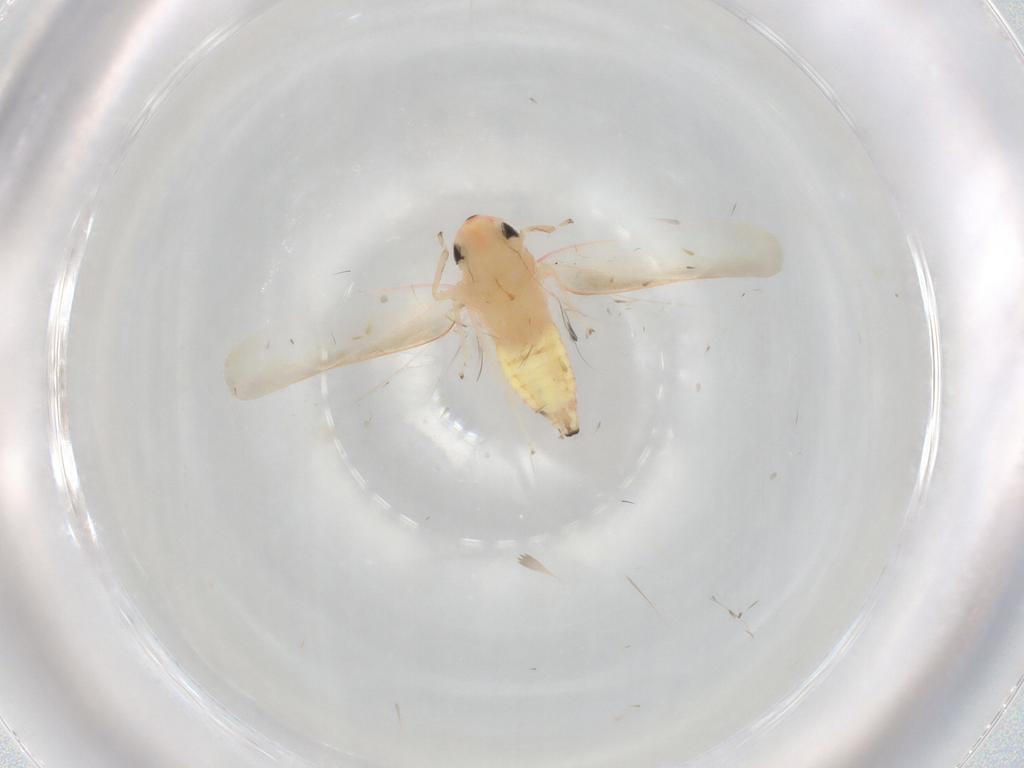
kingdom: Animalia
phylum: Arthropoda
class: Insecta
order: Hemiptera
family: Cicadellidae
